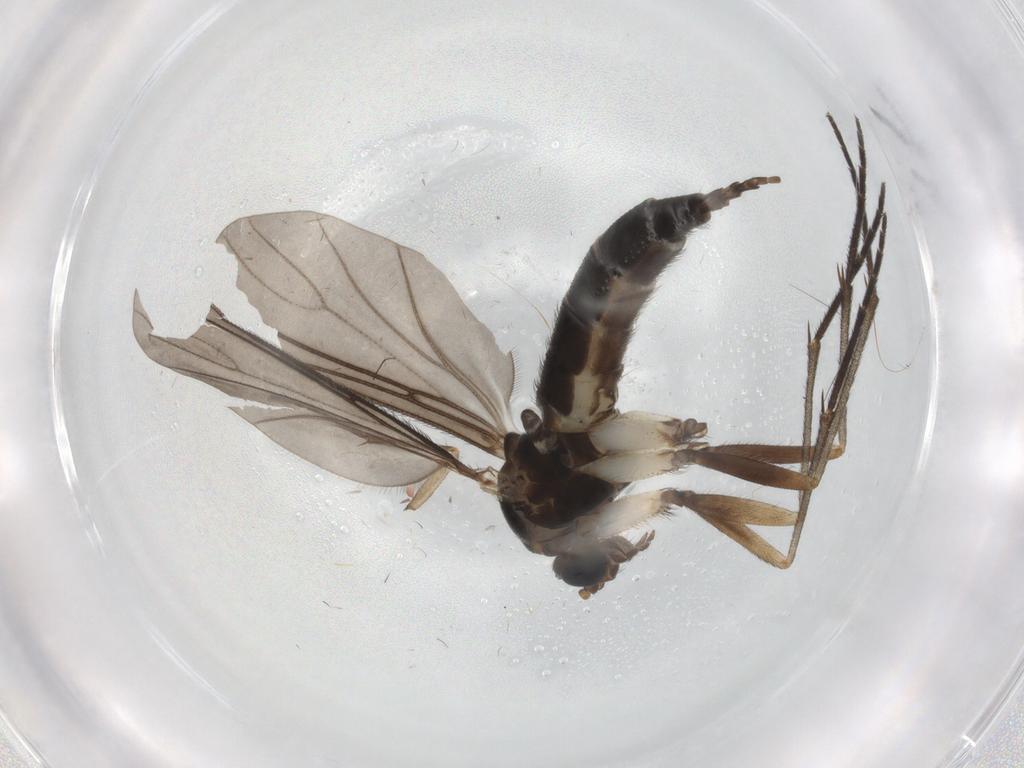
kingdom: Animalia
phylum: Arthropoda
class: Insecta
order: Diptera
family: Sciaridae
